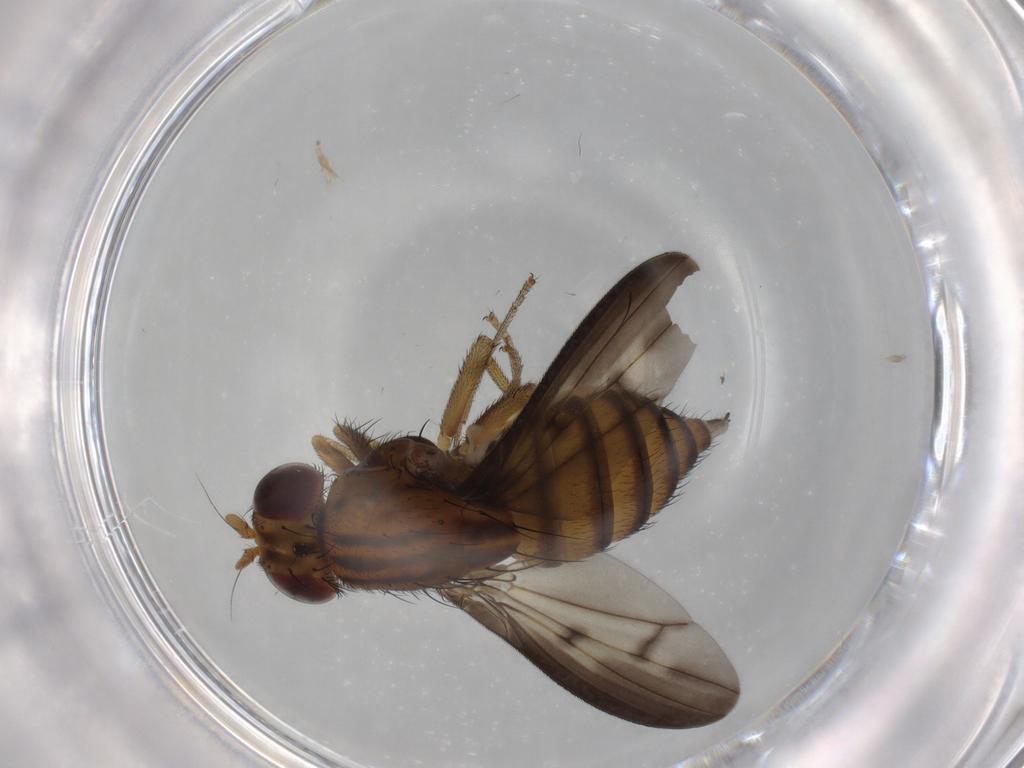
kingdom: Animalia
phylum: Arthropoda
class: Insecta
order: Diptera
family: Lauxaniidae
